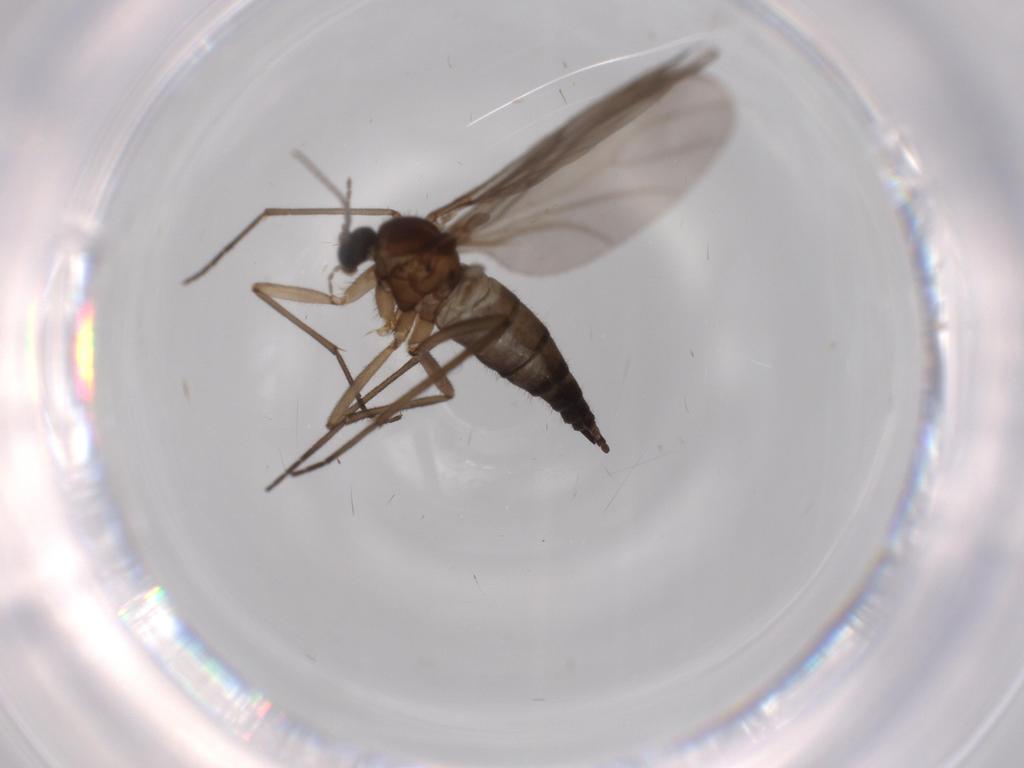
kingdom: Animalia
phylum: Arthropoda
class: Insecta
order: Diptera
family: Sciaridae
